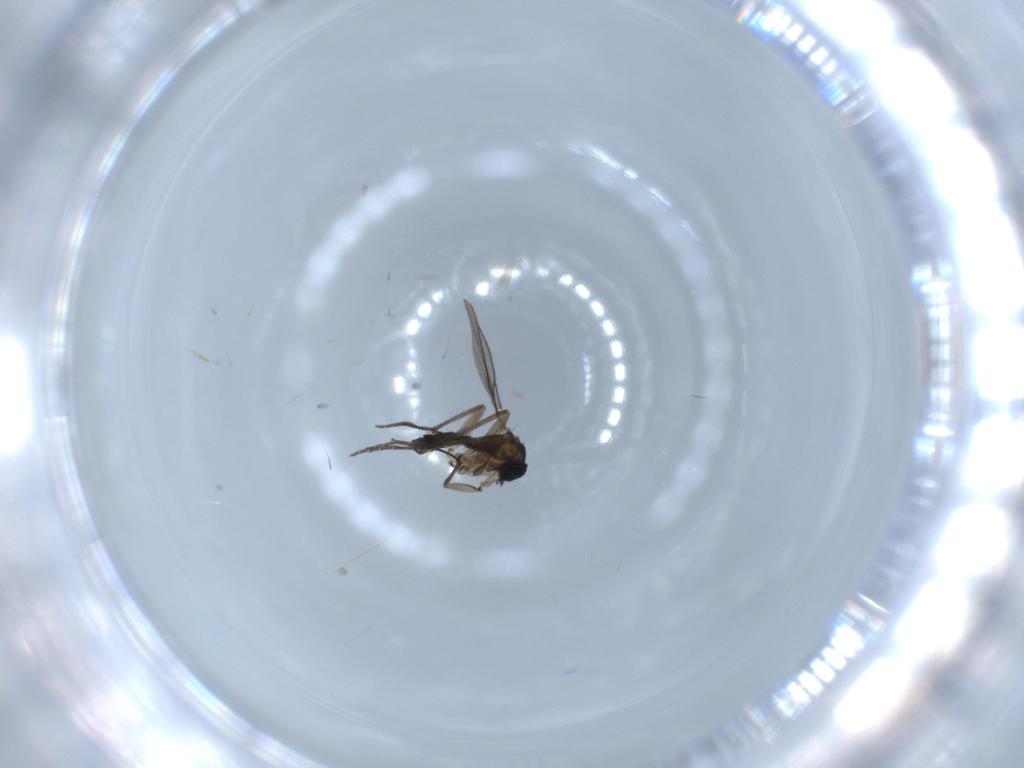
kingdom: Animalia
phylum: Arthropoda
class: Insecta
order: Diptera
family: Sciaridae
